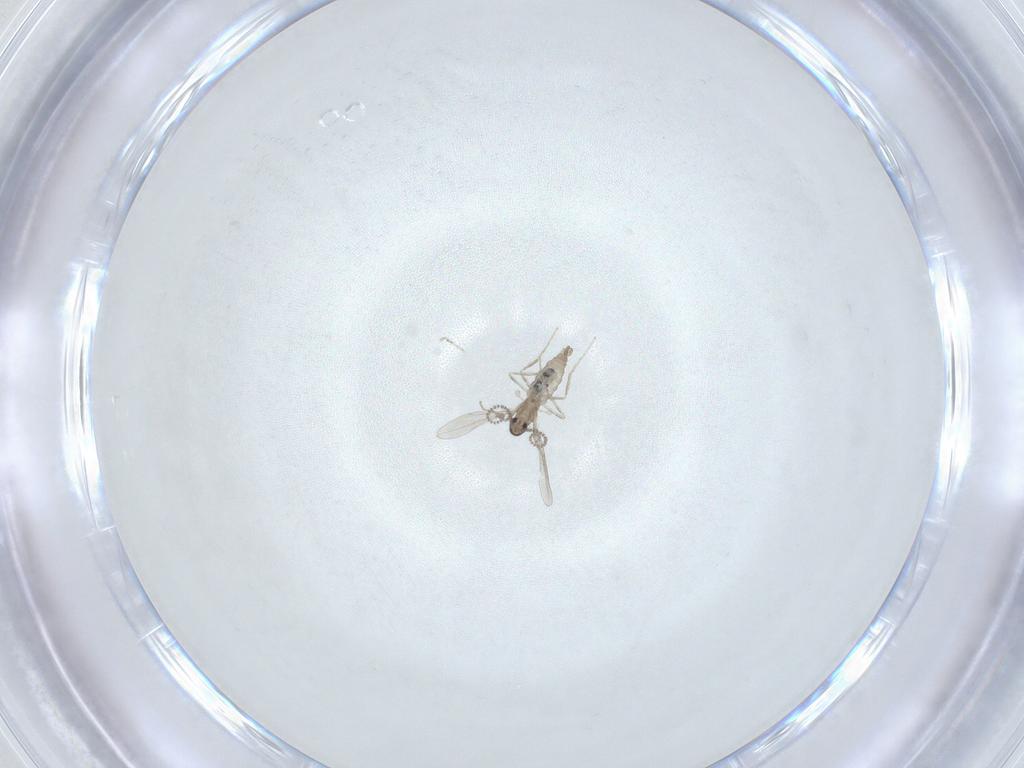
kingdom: Animalia
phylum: Arthropoda
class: Insecta
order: Diptera
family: Cecidomyiidae
